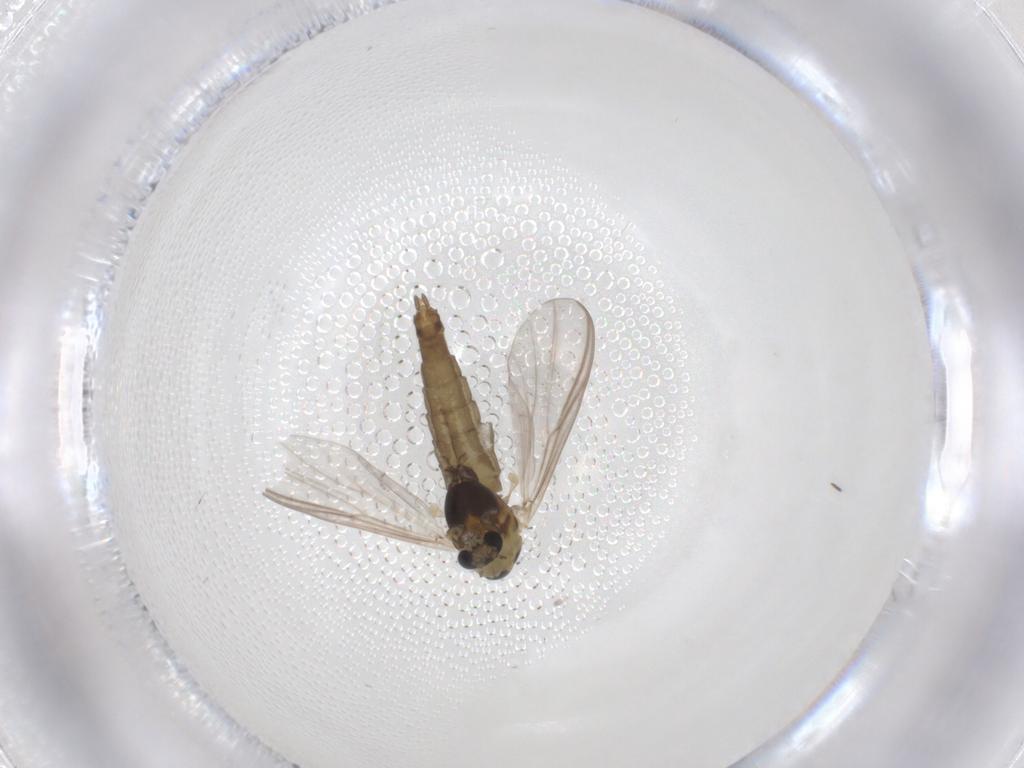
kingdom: Animalia
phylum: Arthropoda
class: Insecta
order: Diptera
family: Chironomidae
